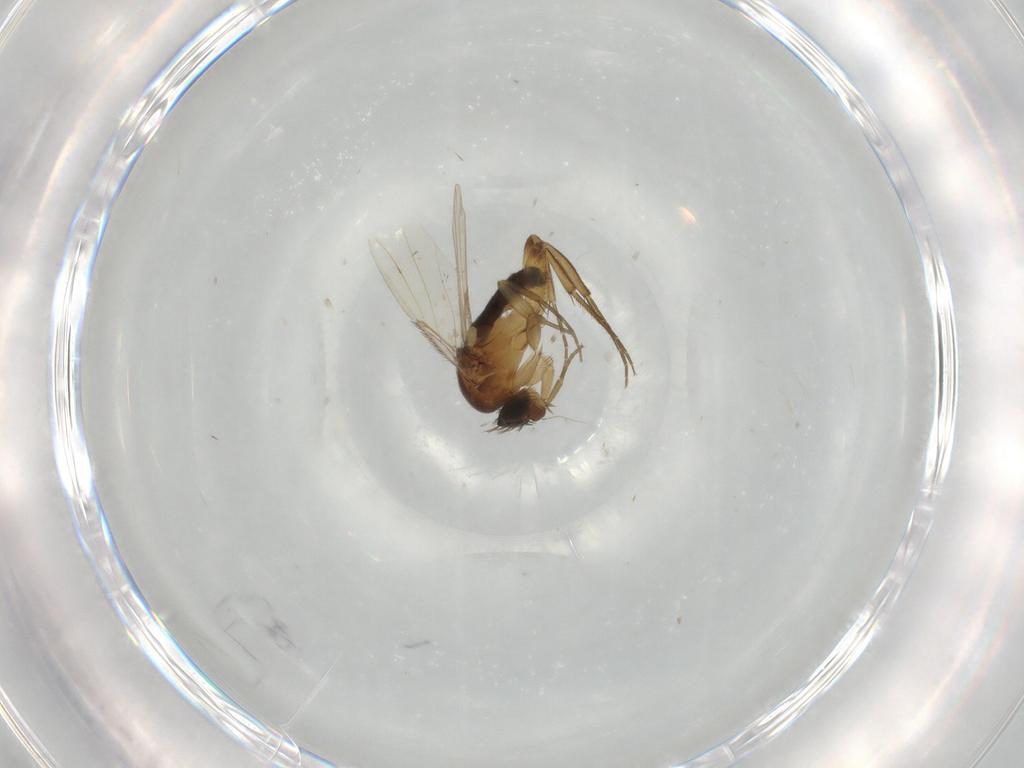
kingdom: Animalia
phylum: Arthropoda
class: Insecta
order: Diptera
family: Phoridae
